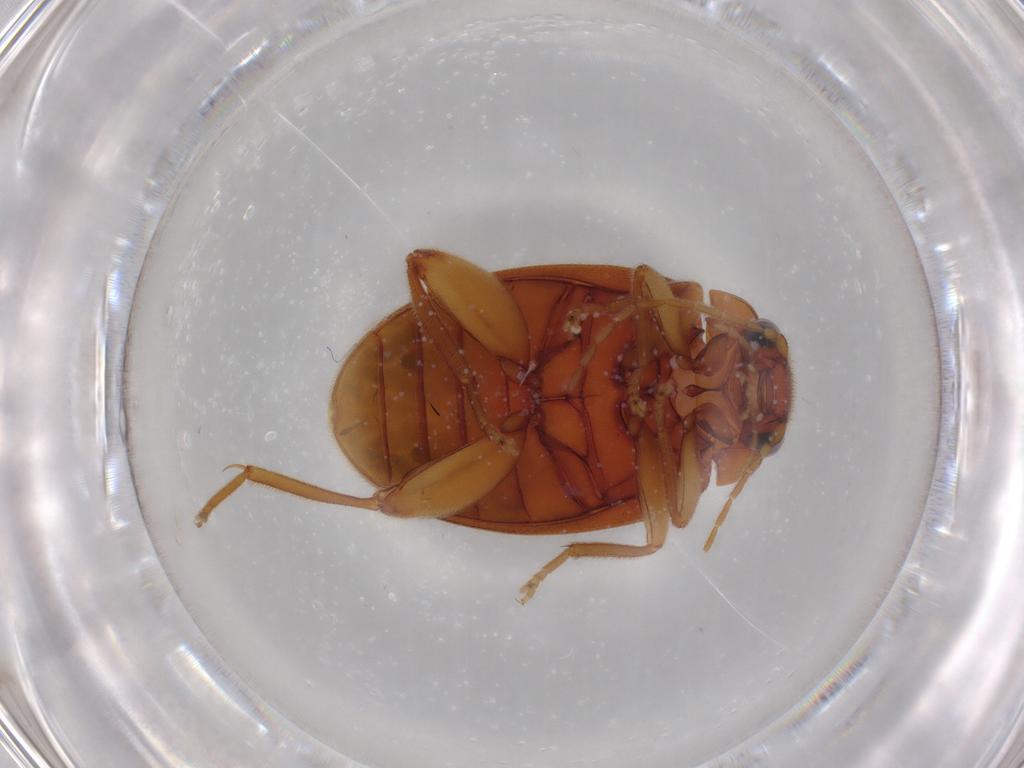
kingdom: Animalia
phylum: Arthropoda
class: Insecta
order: Coleoptera
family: Scirtidae
